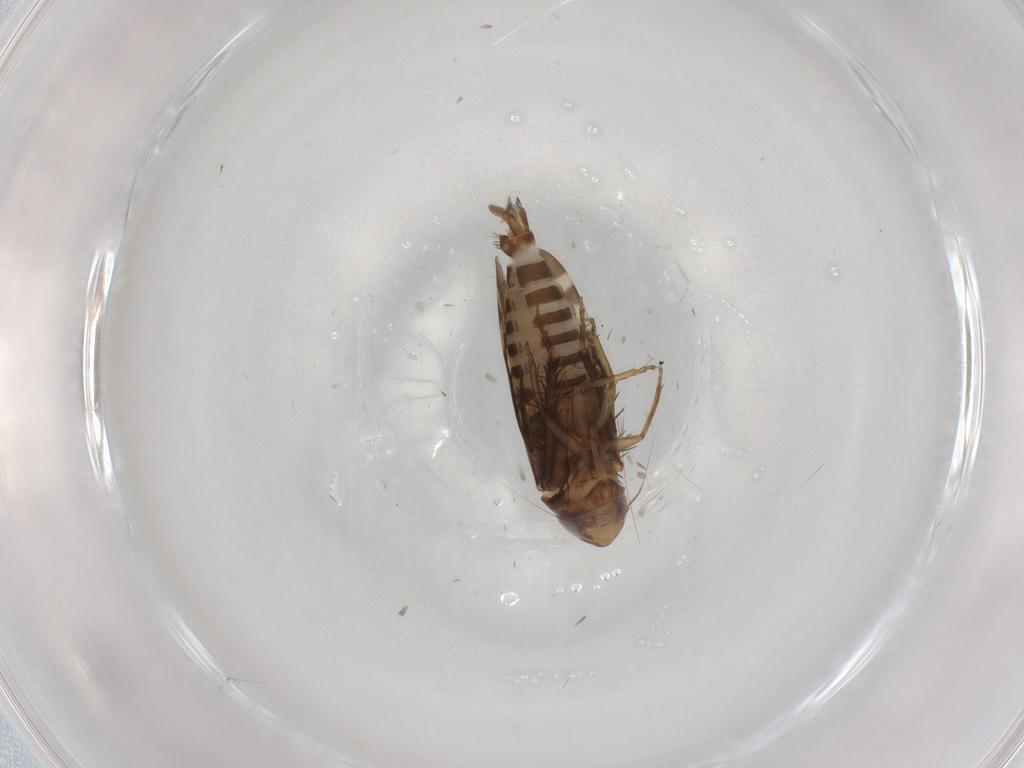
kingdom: Animalia
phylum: Arthropoda
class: Insecta
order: Hemiptera
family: Cicadellidae
